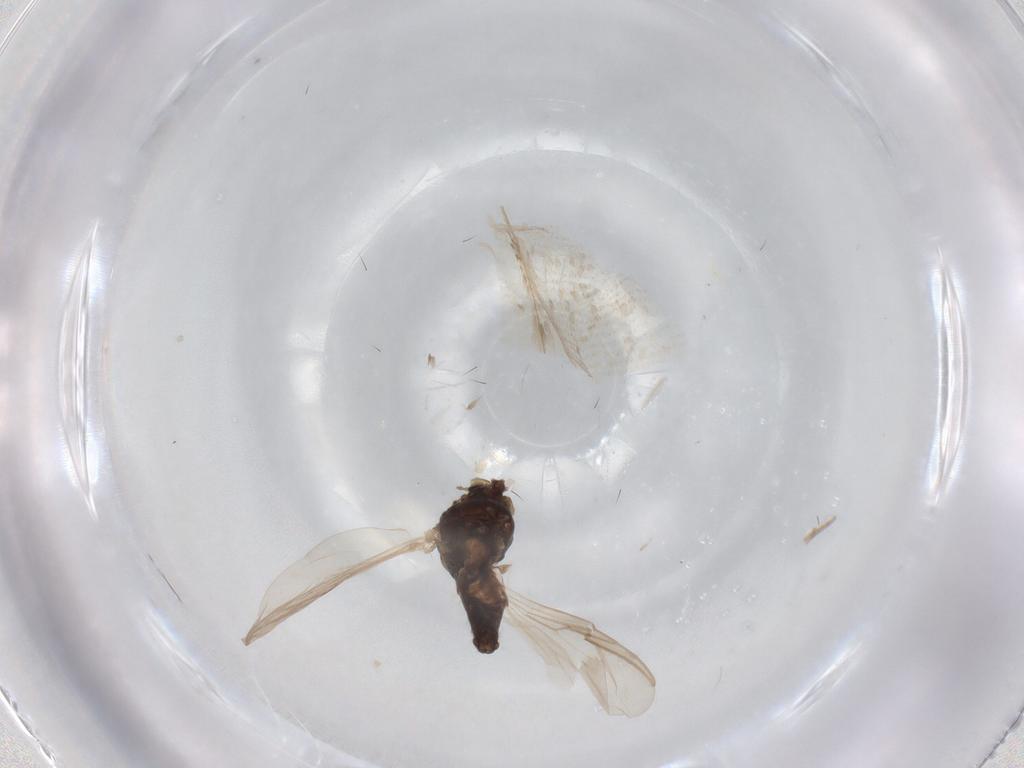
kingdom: Animalia
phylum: Arthropoda
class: Insecta
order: Diptera
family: Chironomidae
